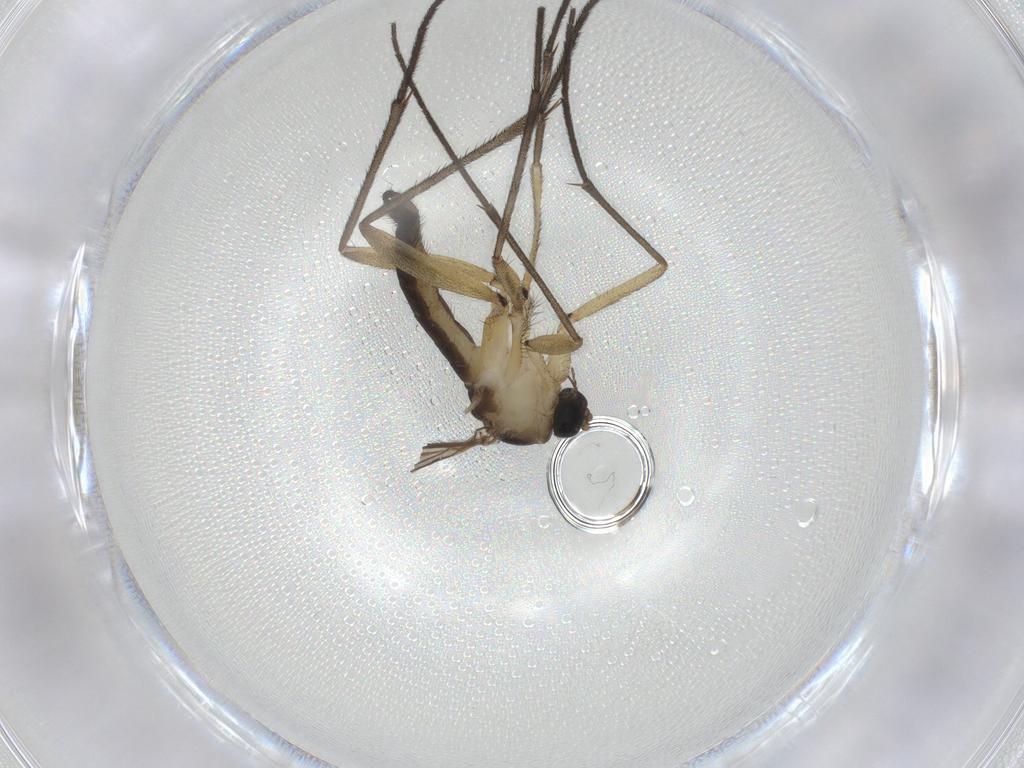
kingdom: Animalia
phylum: Arthropoda
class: Insecta
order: Diptera
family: Sciaridae
